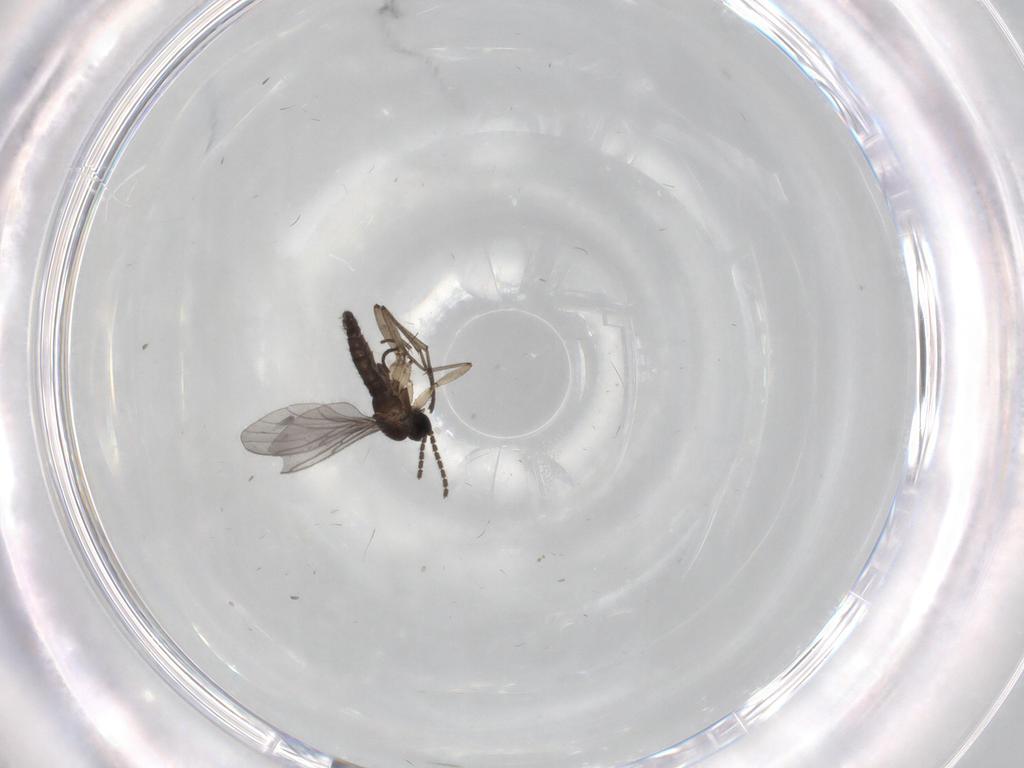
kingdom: Animalia
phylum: Arthropoda
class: Insecta
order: Diptera
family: Sciaridae
